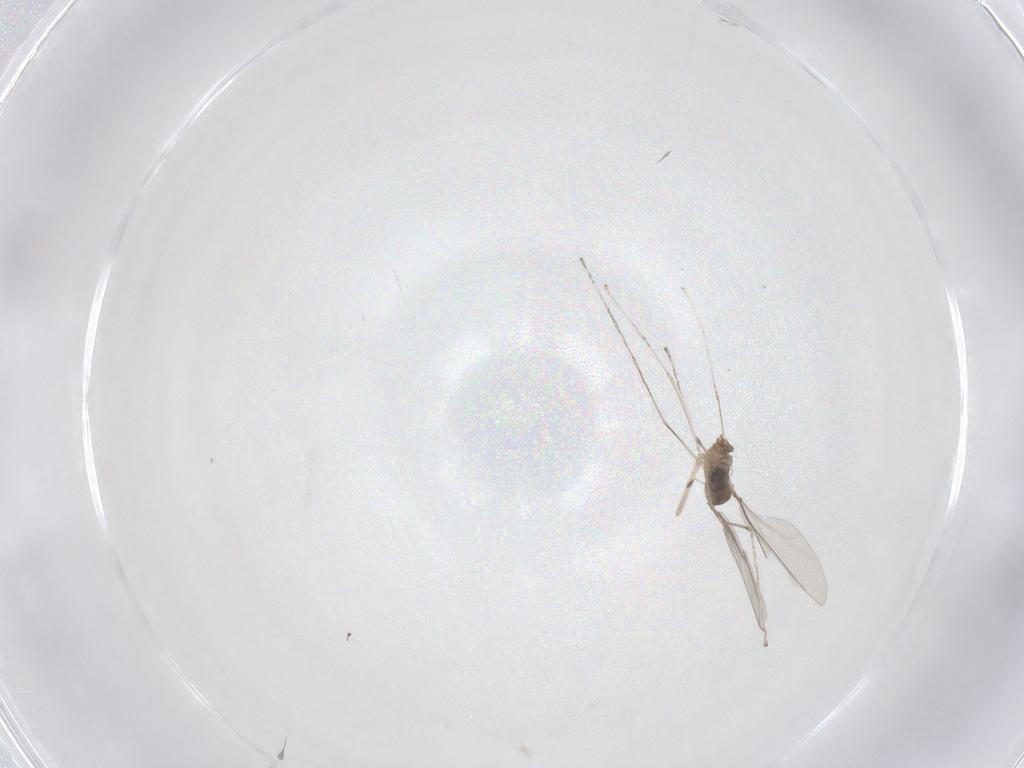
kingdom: Animalia
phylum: Arthropoda
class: Insecta
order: Diptera
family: Cecidomyiidae
